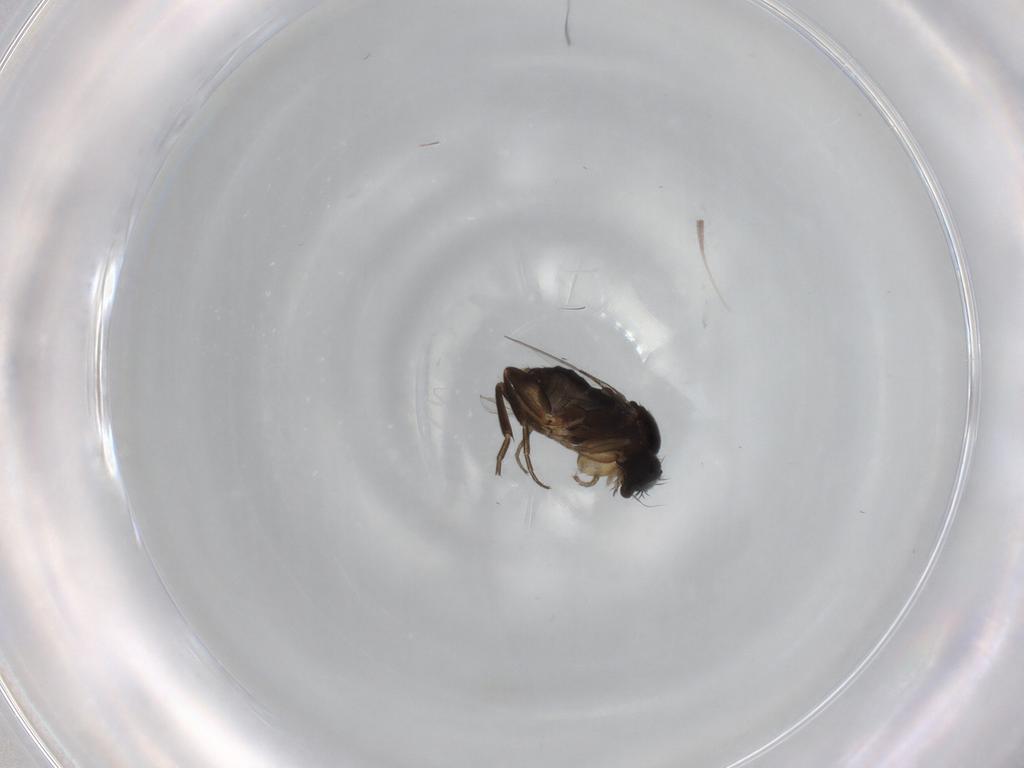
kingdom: Animalia
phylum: Arthropoda
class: Insecta
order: Diptera
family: Phoridae
